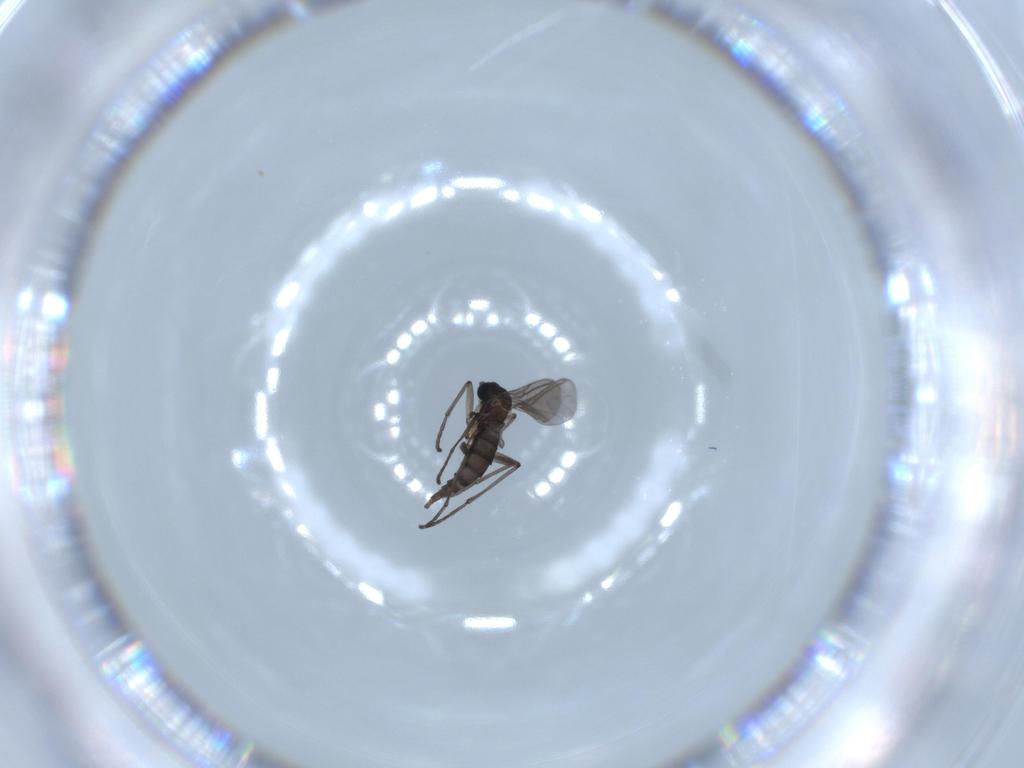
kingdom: Animalia
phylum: Arthropoda
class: Insecta
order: Diptera
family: Sciaridae
